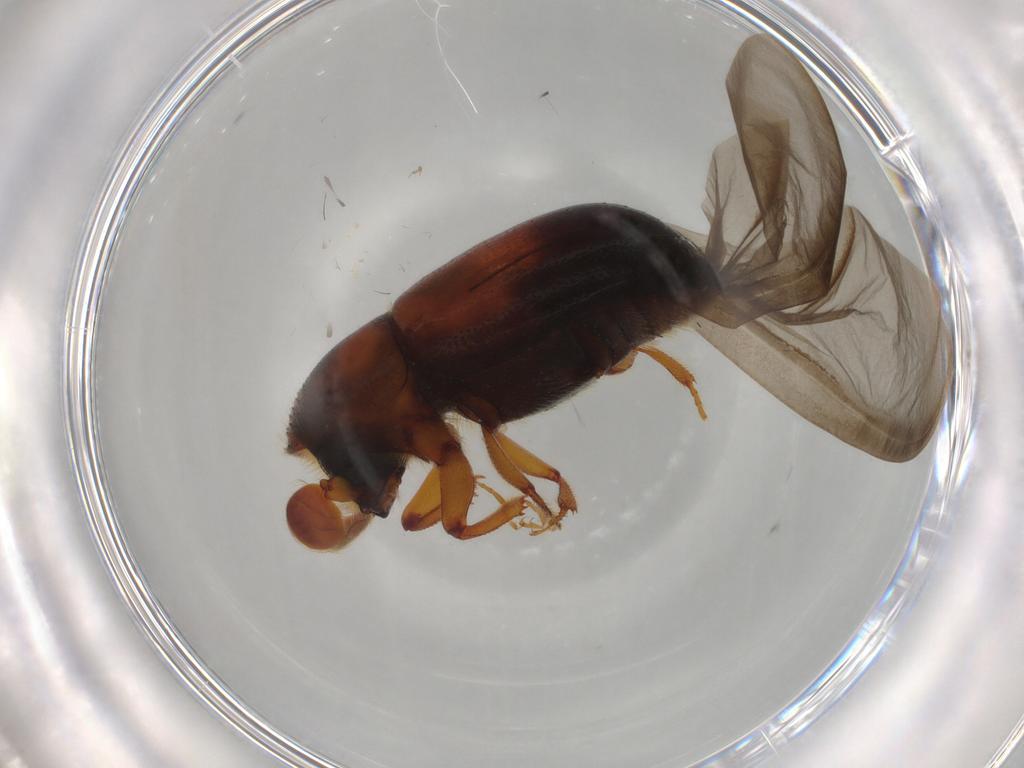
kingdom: Animalia
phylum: Arthropoda
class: Insecta
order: Coleoptera
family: Curculionidae
